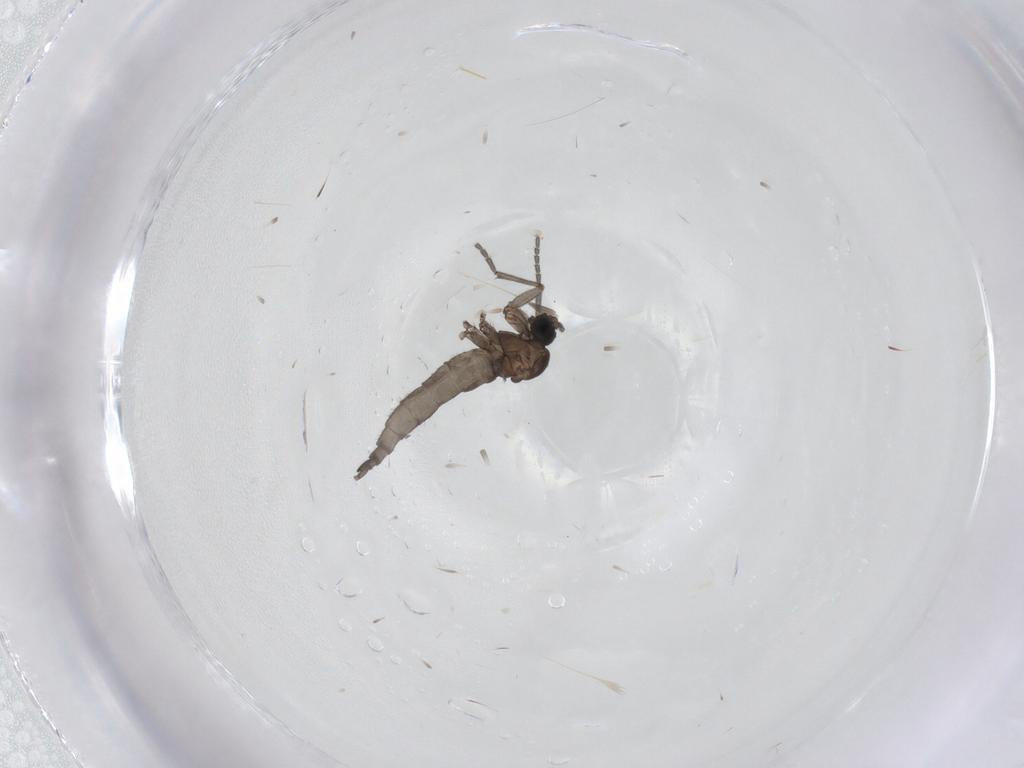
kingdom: Animalia
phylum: Arthropoda
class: Insecta
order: Diptera
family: Sciaridae
